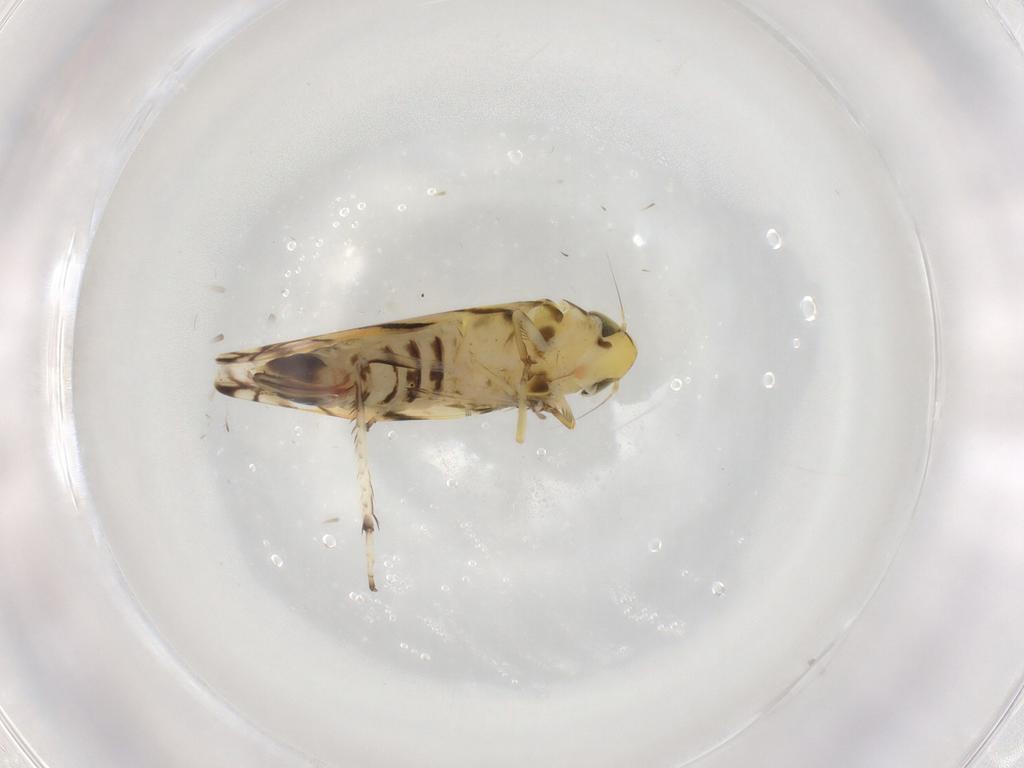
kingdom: Animalia
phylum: Arthropoda
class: Insecta
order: Hemiptera
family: Cicadellidae
